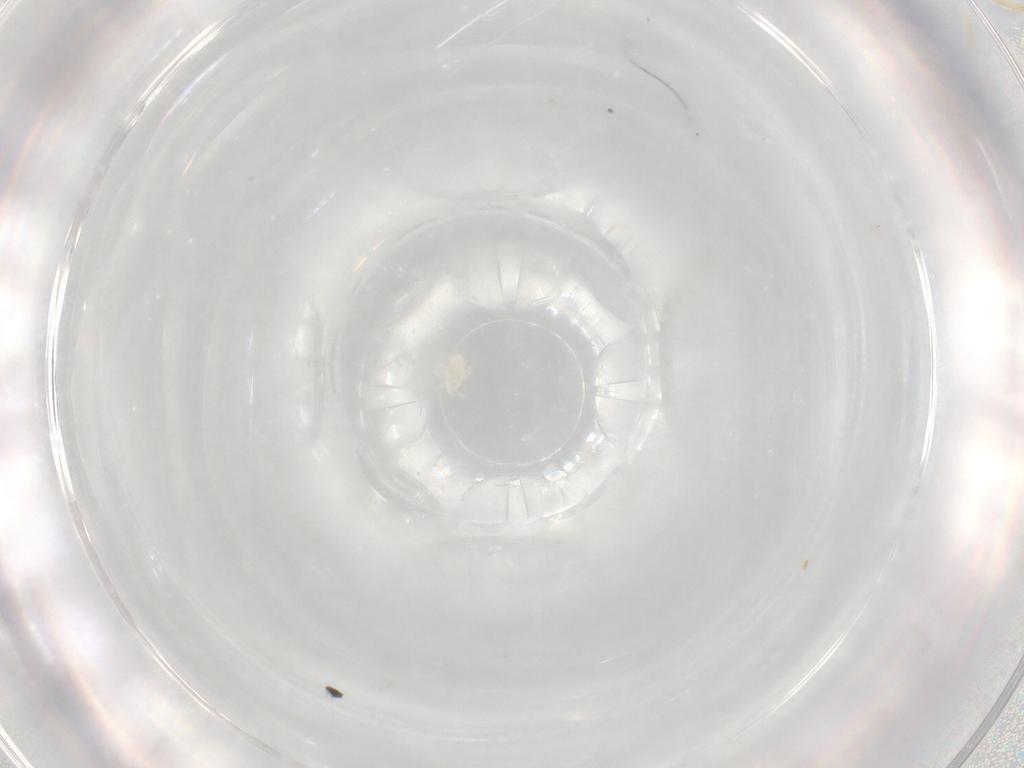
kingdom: Animalia
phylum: Arthropoda
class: Arachnida
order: Trombidiformes
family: Eupodidae
